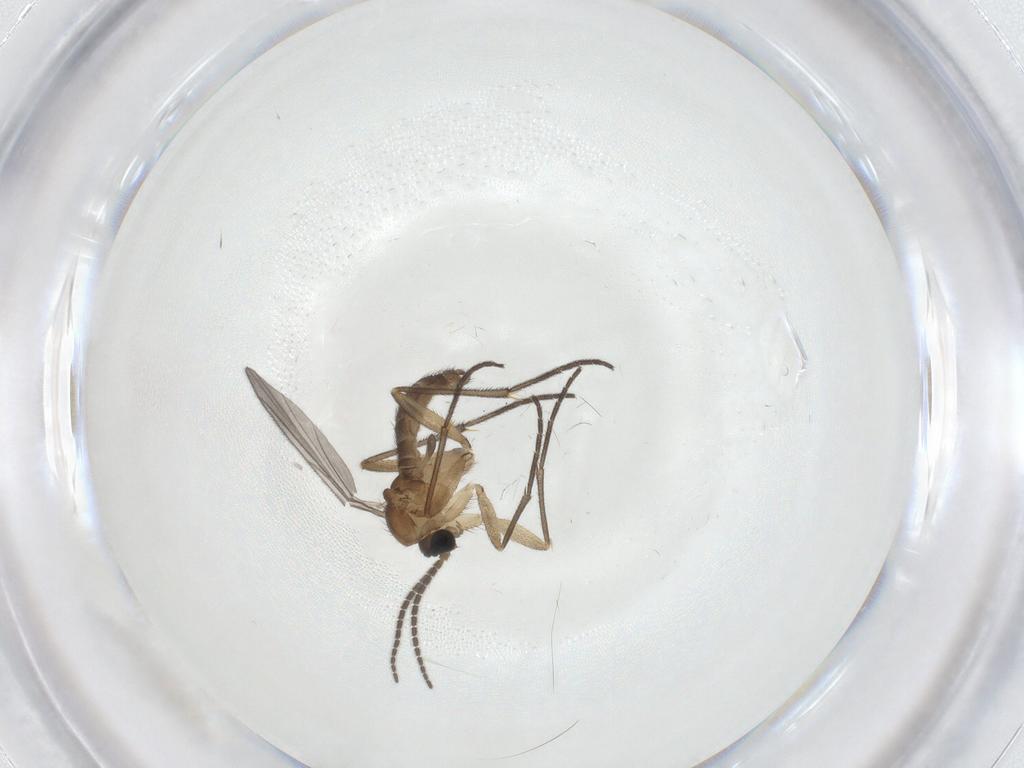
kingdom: Animalia
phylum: Arthropoda
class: Insecta
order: Diptera
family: Sciaridae
